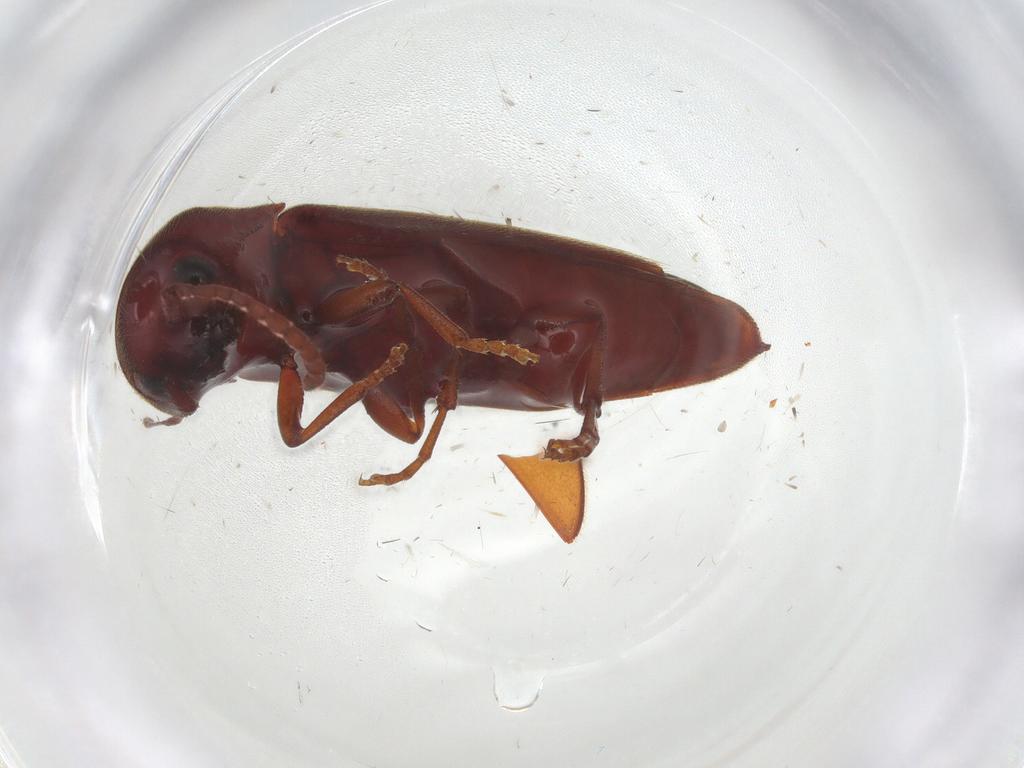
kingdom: Animalia
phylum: Arthropoda
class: Insecta
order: Coleoptera
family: Eucnemidae
